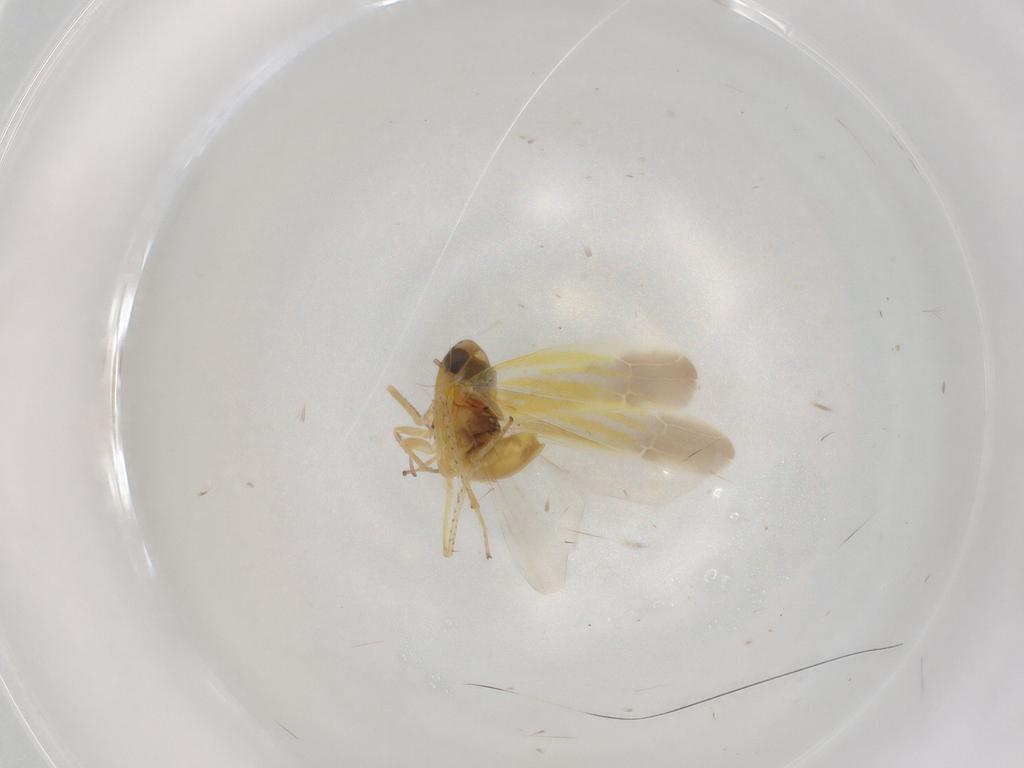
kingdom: Animalia
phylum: Arthropoda
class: Insecta
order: Hemiptera
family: Cicadellidae
